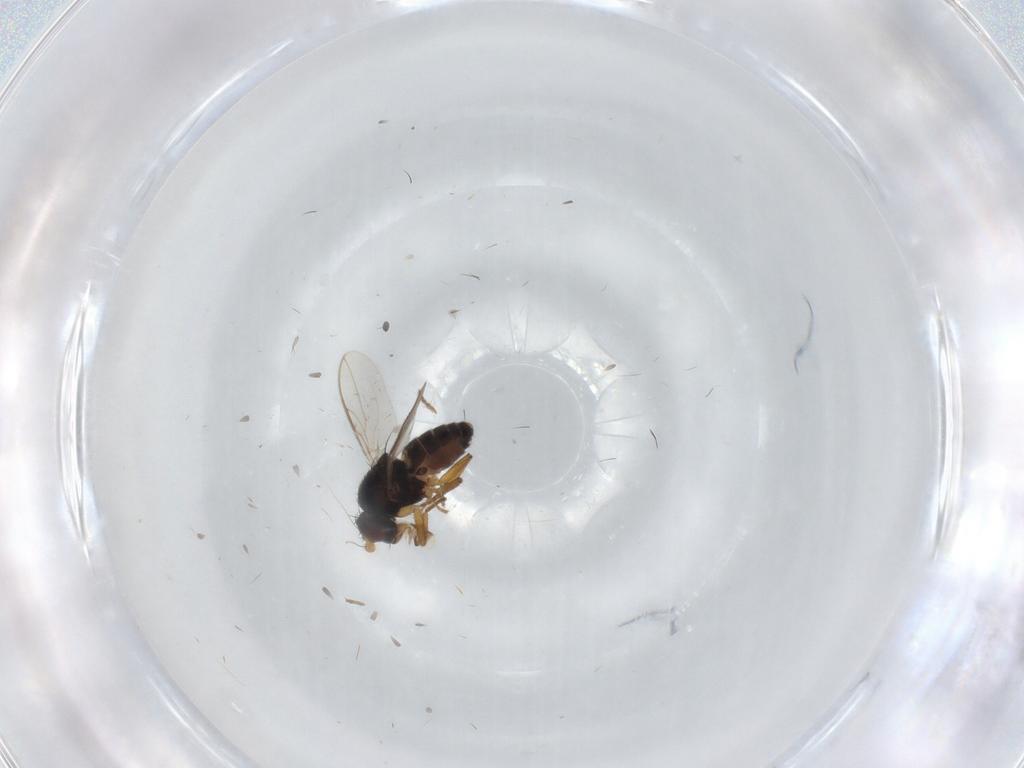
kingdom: Animalia
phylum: Arthropoda
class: Insecta
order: Diptera
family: Sphaeroceridae
